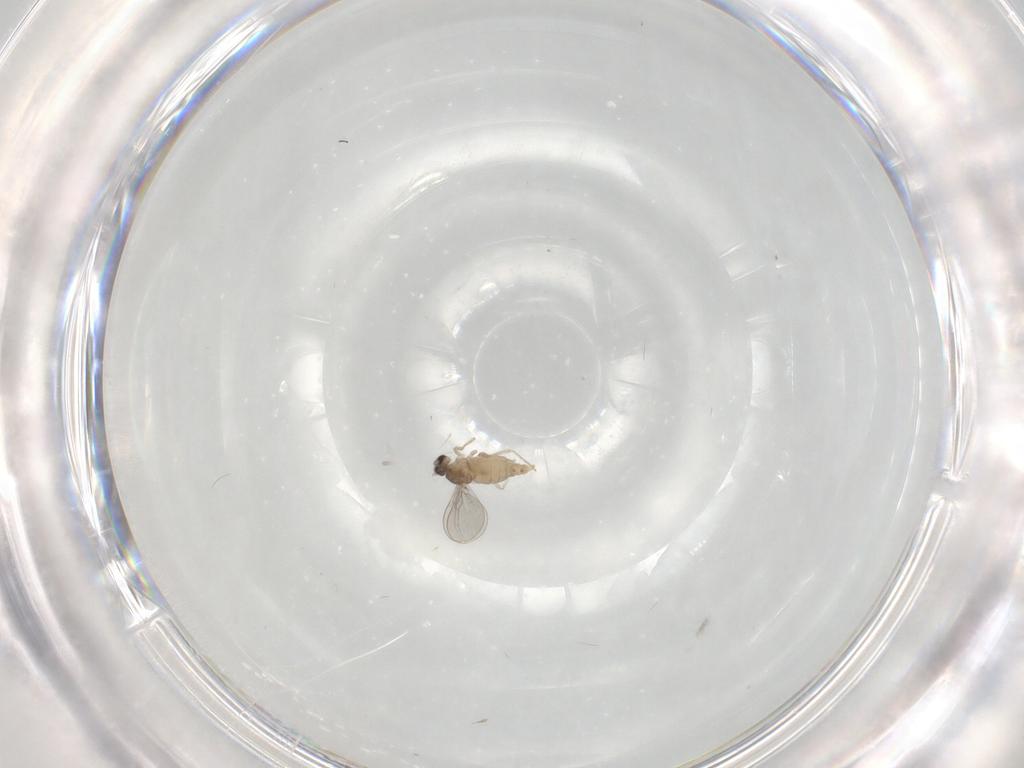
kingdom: Animalia
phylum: Arthropoda
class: Insecta
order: Diptera
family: Cecidomyiidae
